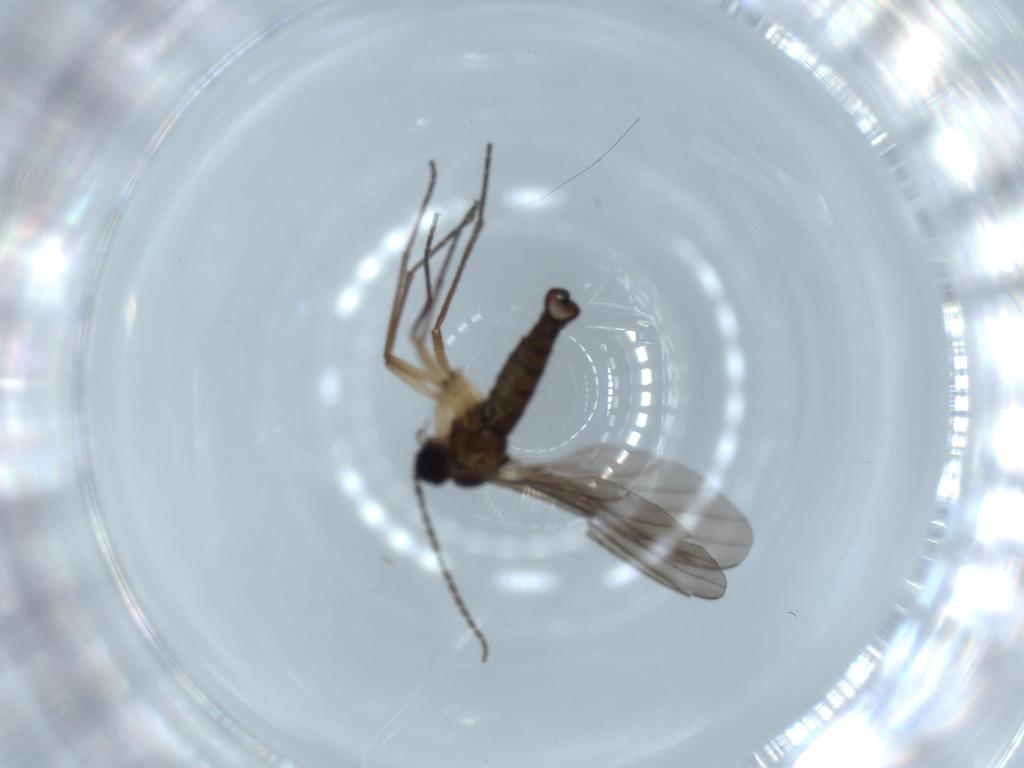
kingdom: Animalia
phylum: Arthropoda
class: Insecta
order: Diptera
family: Sciaridae
